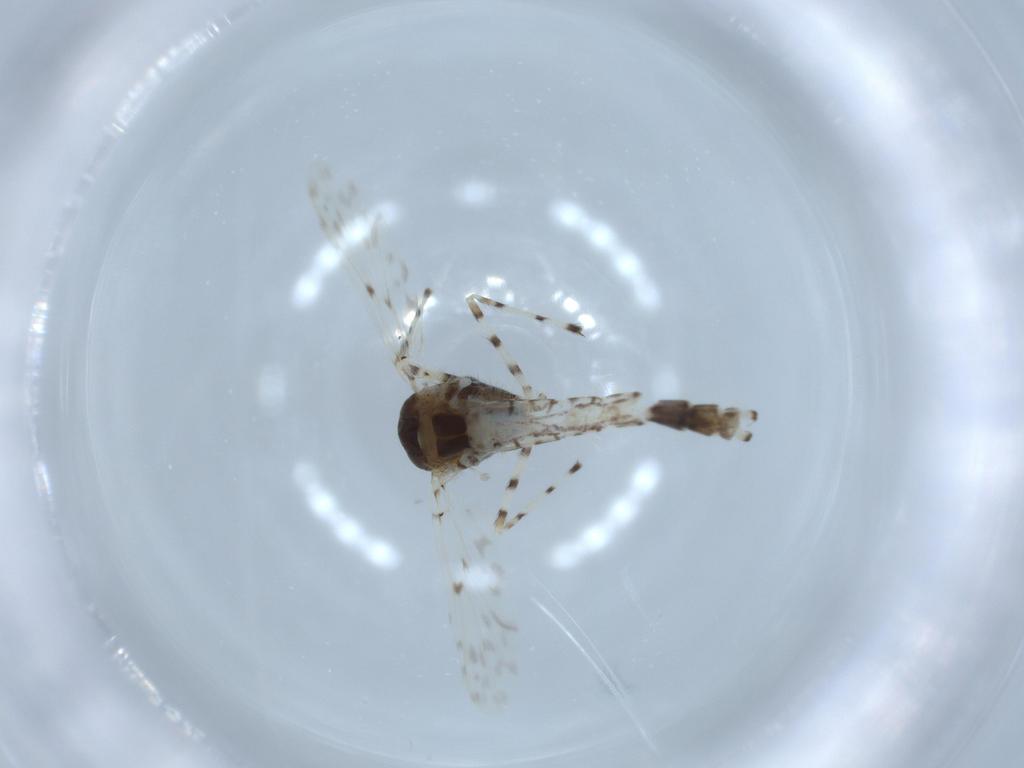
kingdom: Animalia
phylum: Arthropoda
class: Insecta
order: Diptera
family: Chironomidae
